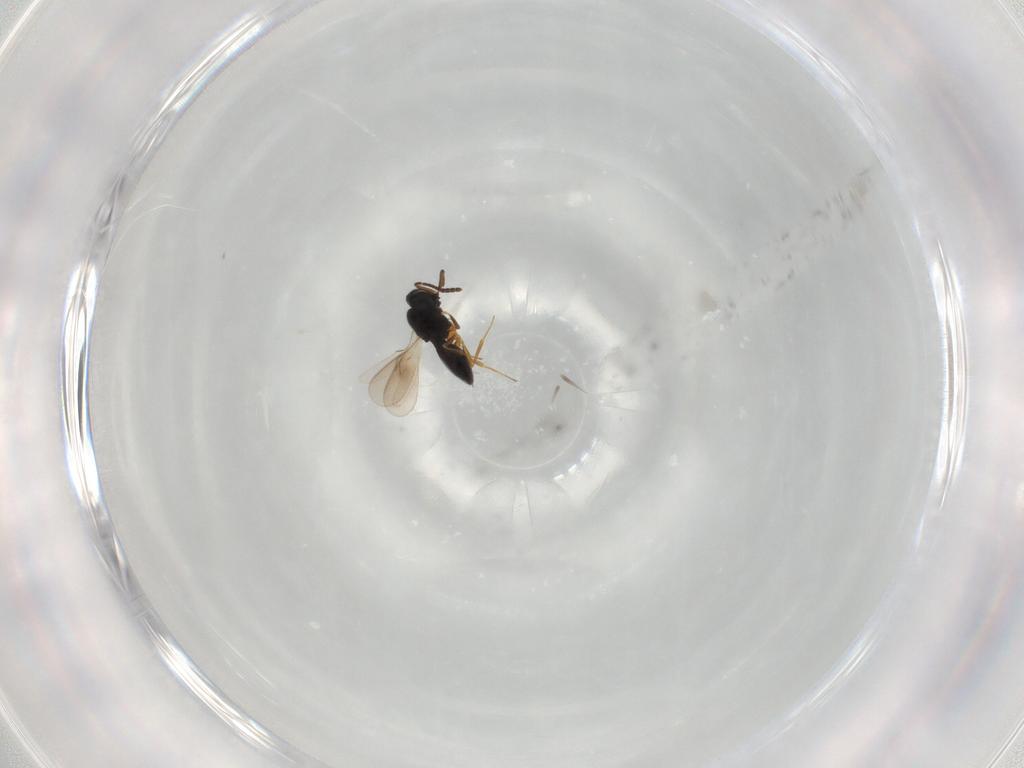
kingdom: Animalia
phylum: Arthropoda
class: Insecta
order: Hymenoptera
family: Scelionidae
